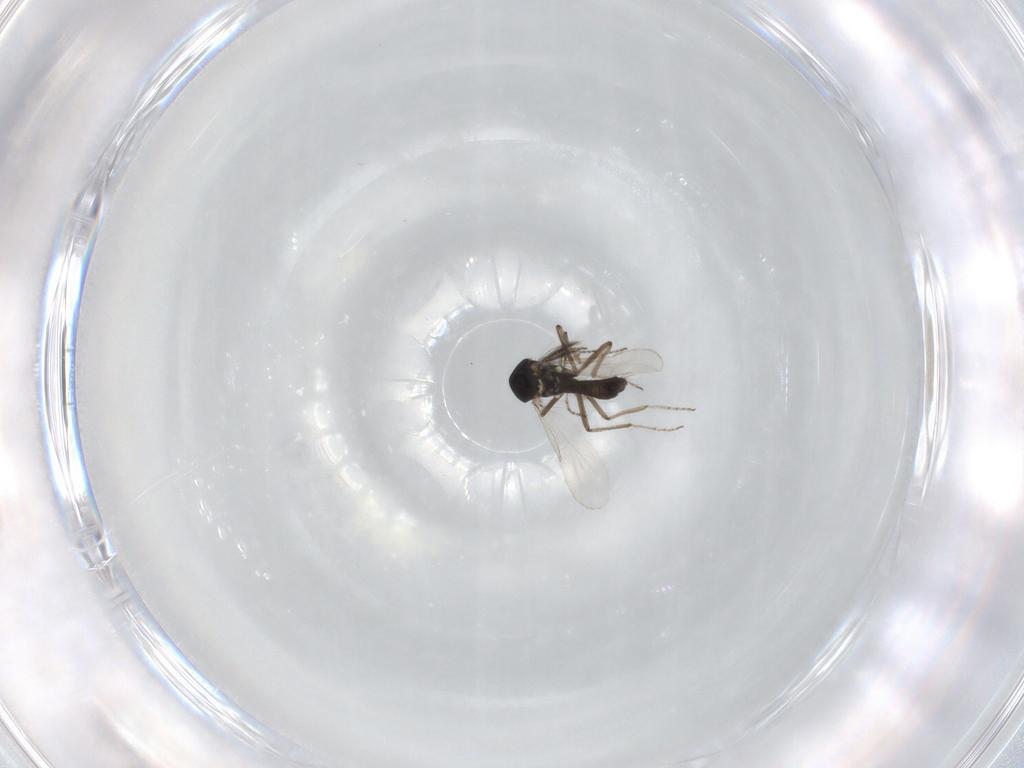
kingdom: Animalia
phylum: Arthropoda
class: Insecta
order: Diptera
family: Ceratopogonidae
